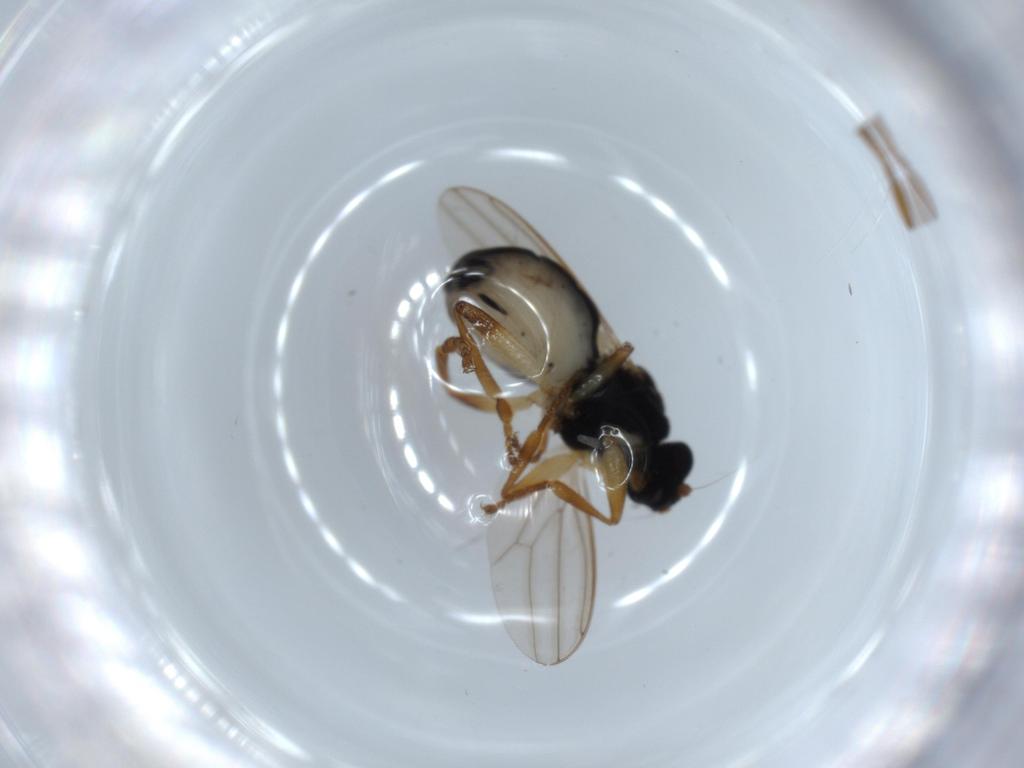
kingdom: Animalia
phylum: Arthropoda
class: Insecta
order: Diptera
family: Sphaeroceridae
